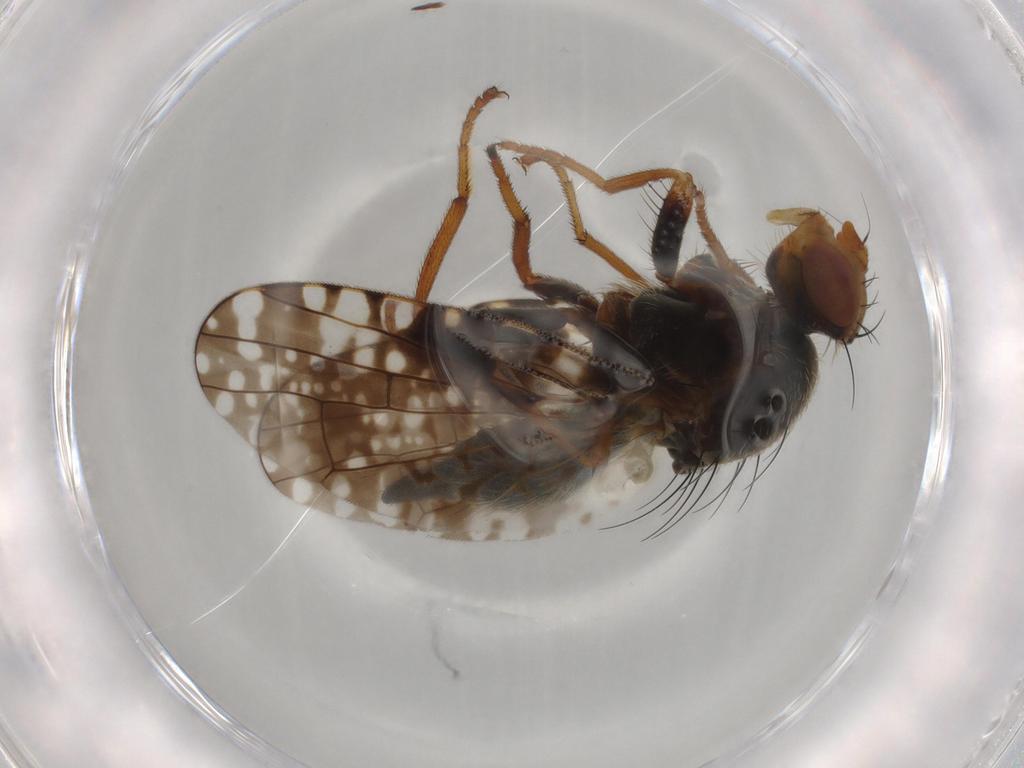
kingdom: Animalia
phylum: Arthropoda
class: Insecta
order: Diptera
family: Tephritidae
